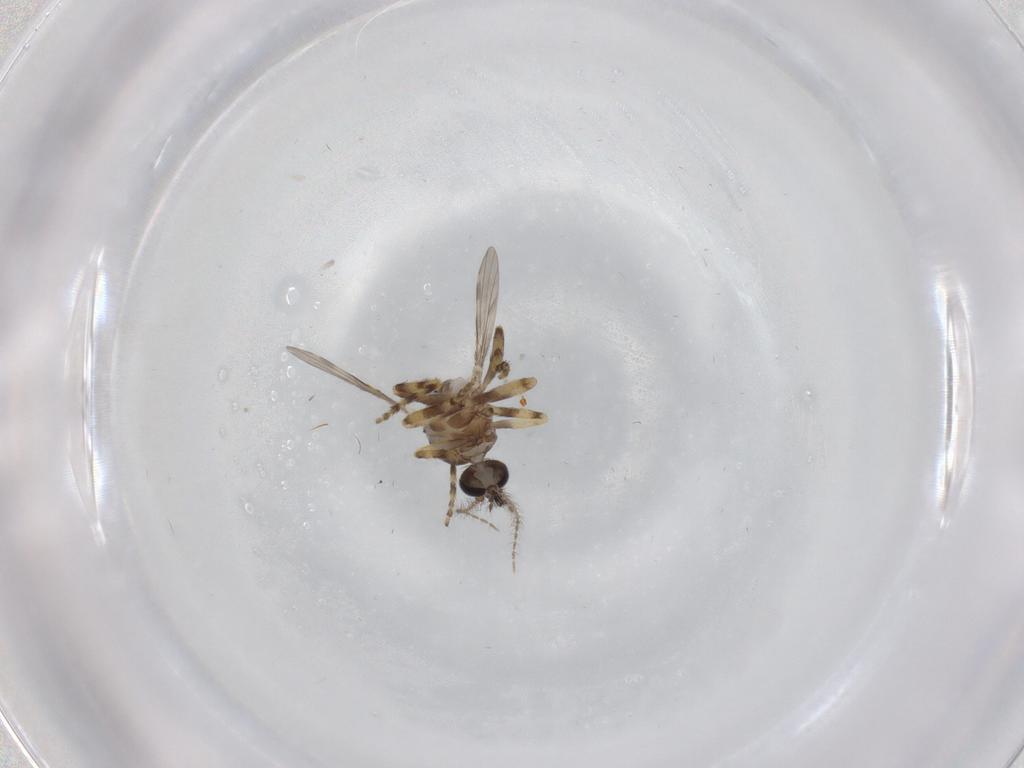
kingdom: Animalia
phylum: Arthropoda
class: Insecta
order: Diptera
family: Ceratopogonidae
